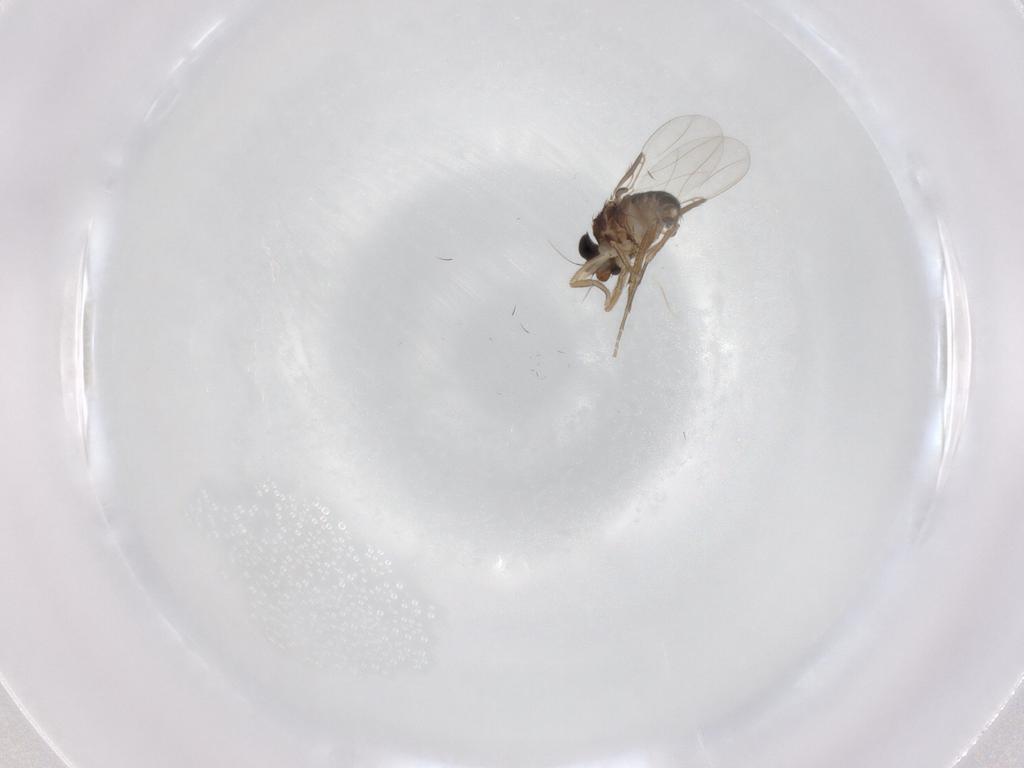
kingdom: Animalia
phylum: Arthropoda
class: Insecta
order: Diptera
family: Phoridae
